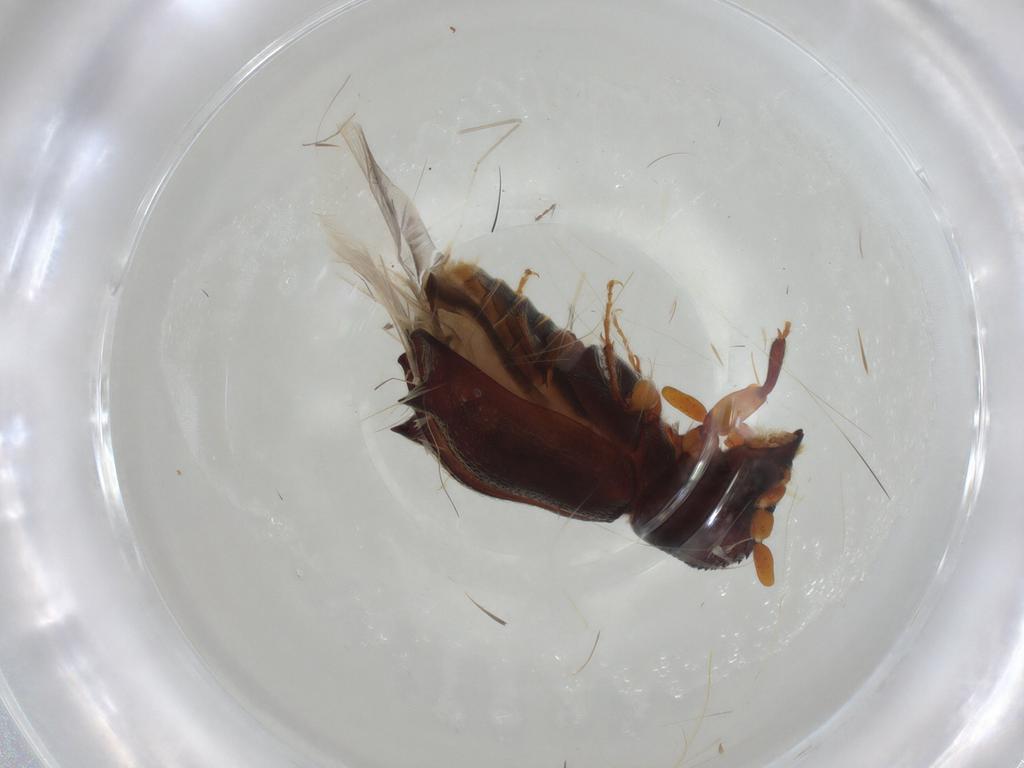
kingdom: Animalia
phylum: Arthropoda
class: Insecta
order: Coleoptera
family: Bostrichidae
